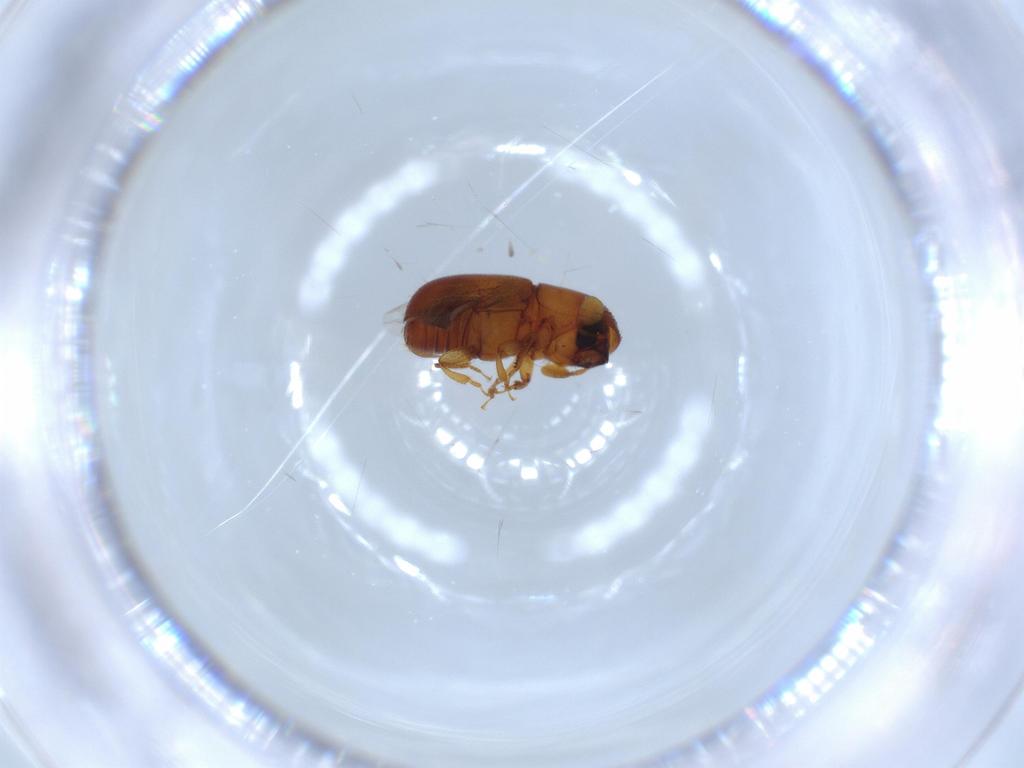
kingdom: Animalia
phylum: Arthropoda
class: Insecta
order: Coleoptera
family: Curculionidae
